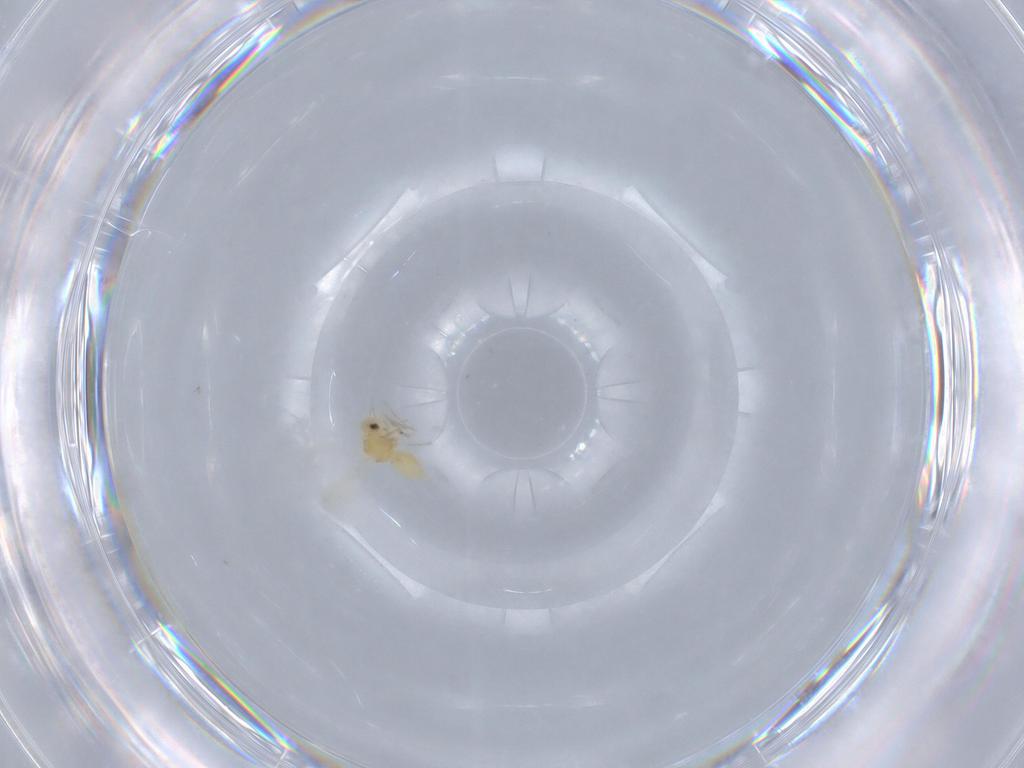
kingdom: Animalia
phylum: Arthropoda
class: Insecta
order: Hemiptera
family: Aleyrodidae
